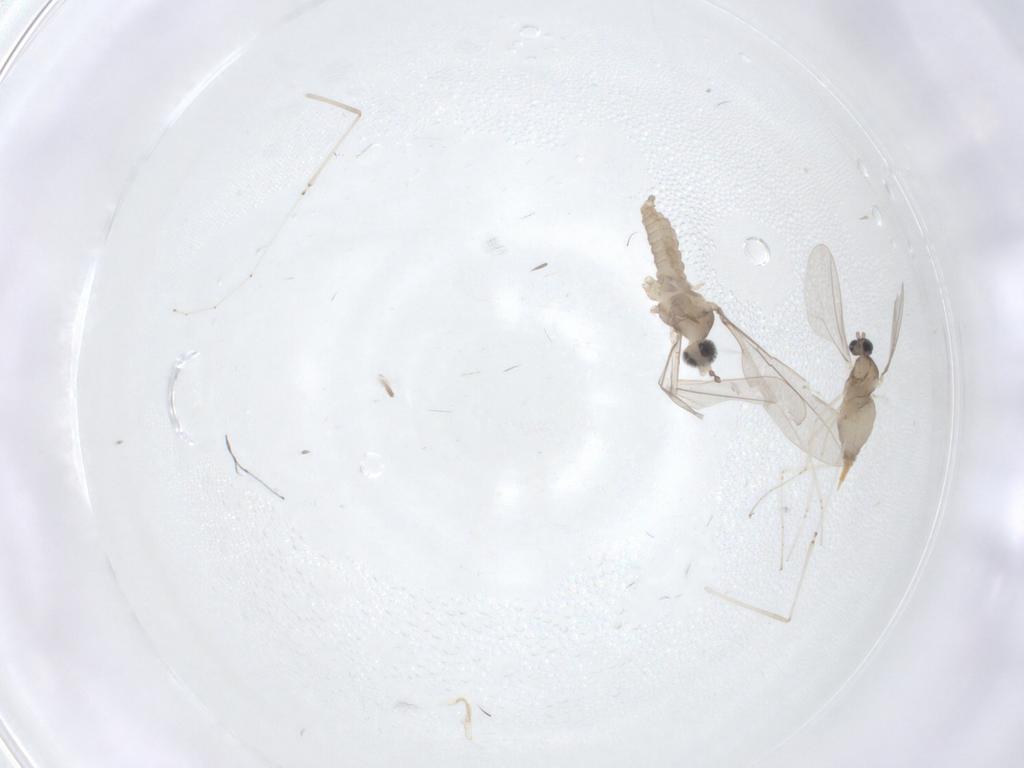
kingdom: Animalia
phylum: Arthropoda
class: Insecta
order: Diptera
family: Cecidomyiidae
